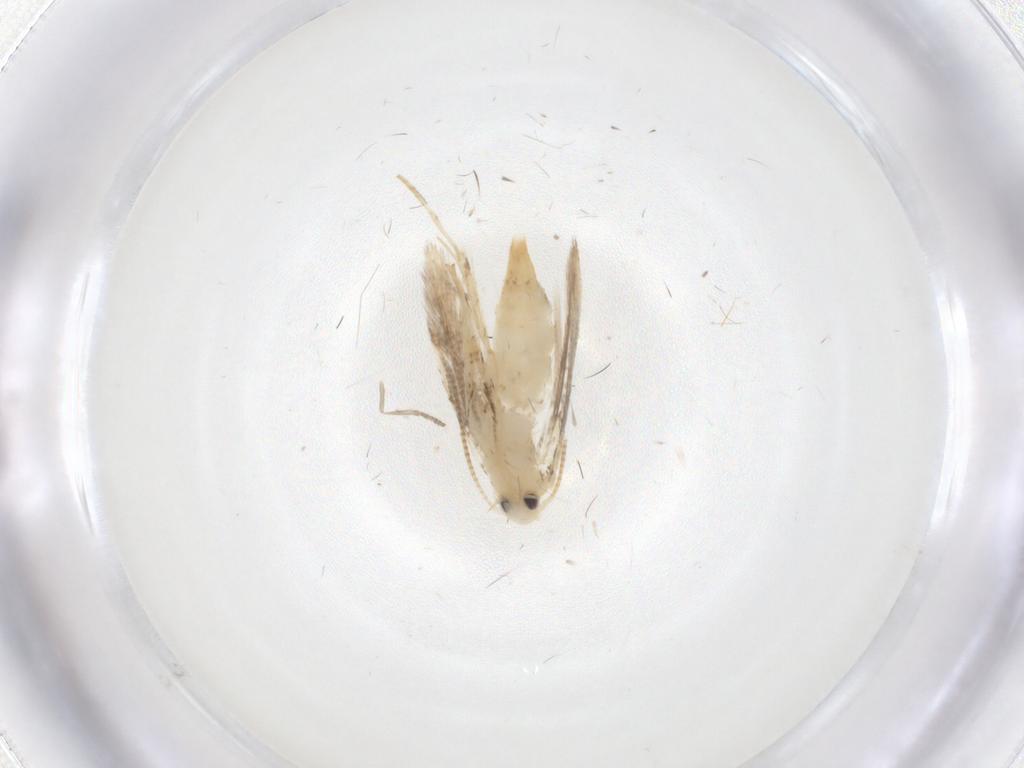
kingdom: Animalia
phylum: Arthropoda
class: Insecta
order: Lepidoptera
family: Gracillariidae
